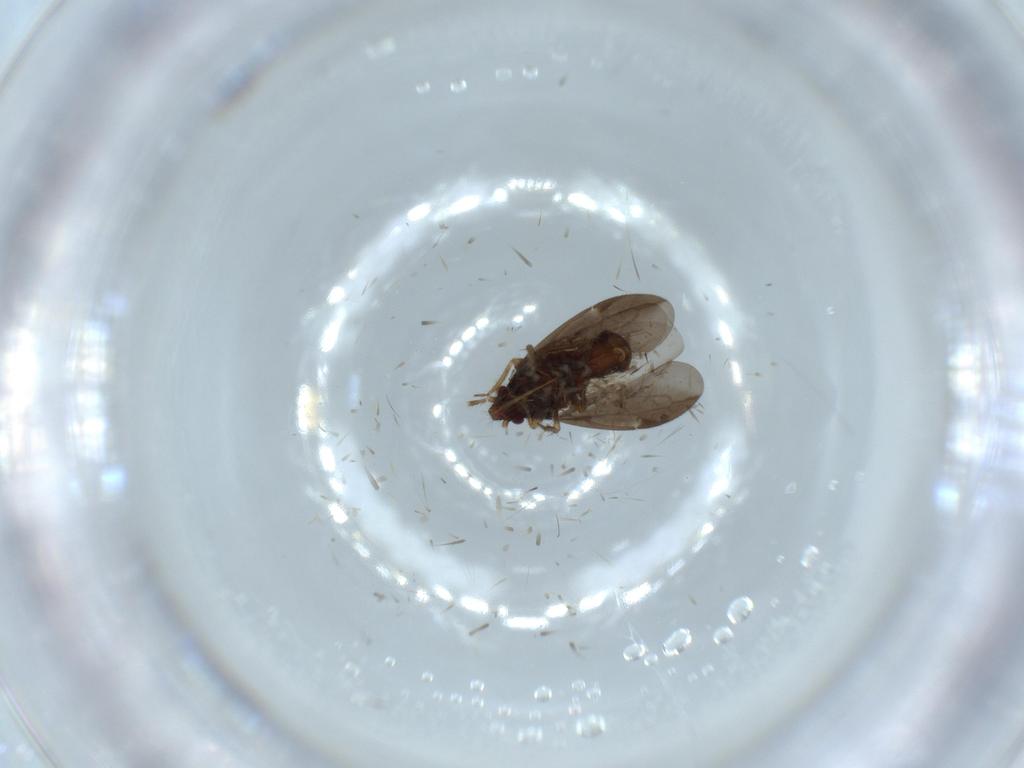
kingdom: Animalia
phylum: Arthropoda
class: Insecta
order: Hemiptera
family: Ceratocombidae
